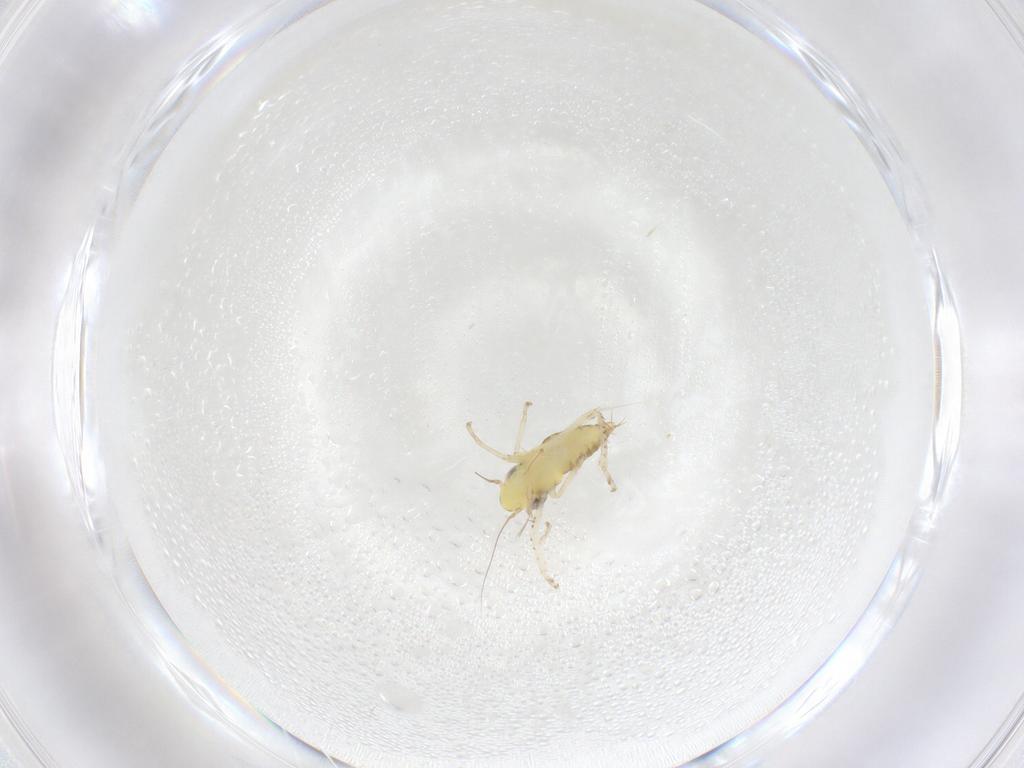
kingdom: Animalia
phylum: Arthropoda
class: Insecta
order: Hemiptera
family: Cicadellidae
